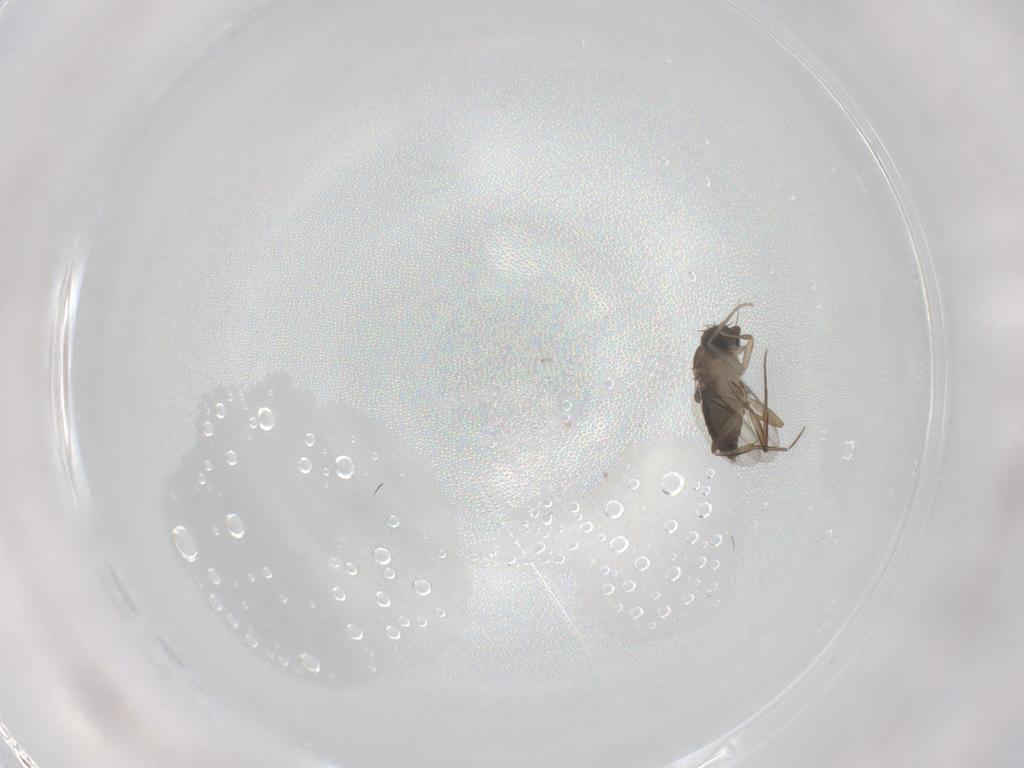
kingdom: Animalia
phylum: Arthropoda
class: Insecta
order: Diptera
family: Phoridae
